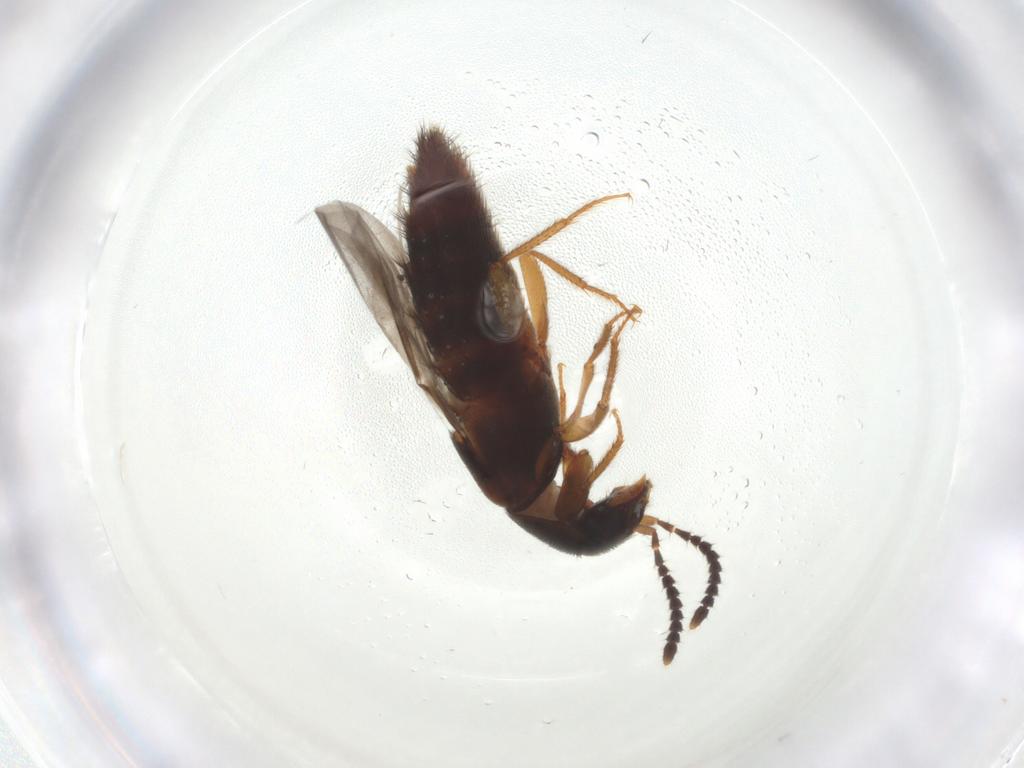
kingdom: Animalia
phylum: Arthropoda
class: Insecta
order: Coleoptera
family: Staphylinidae
